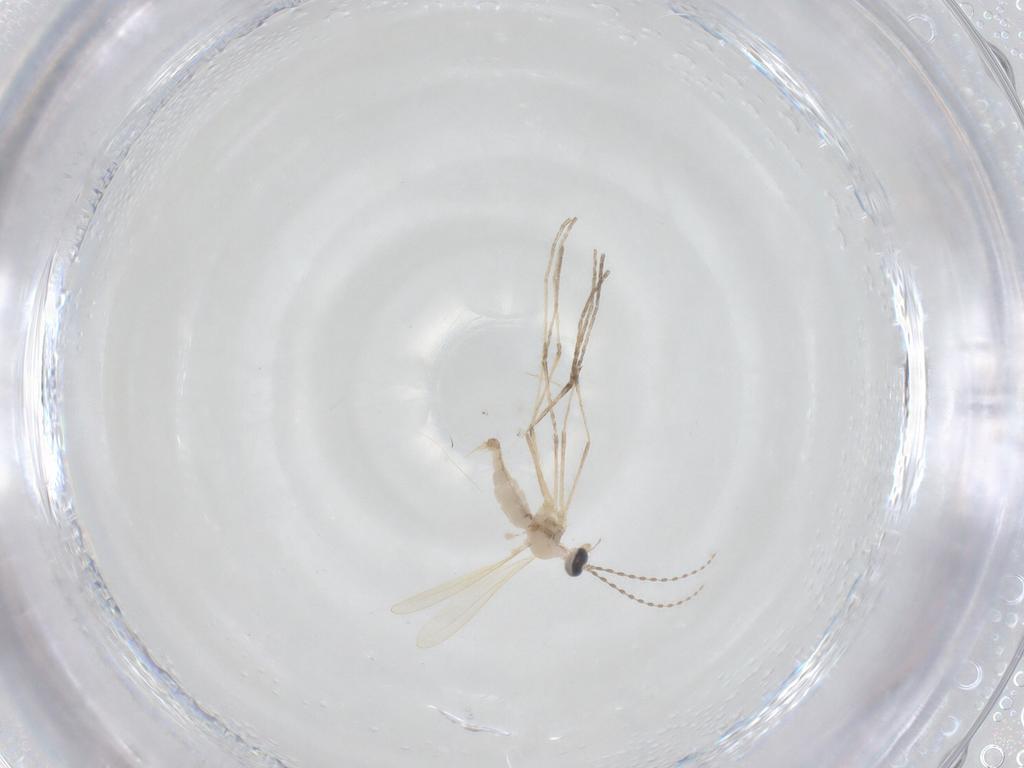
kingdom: Animalia
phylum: Arthropoda
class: Insecta
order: Diptera
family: Cecidomyiidae
